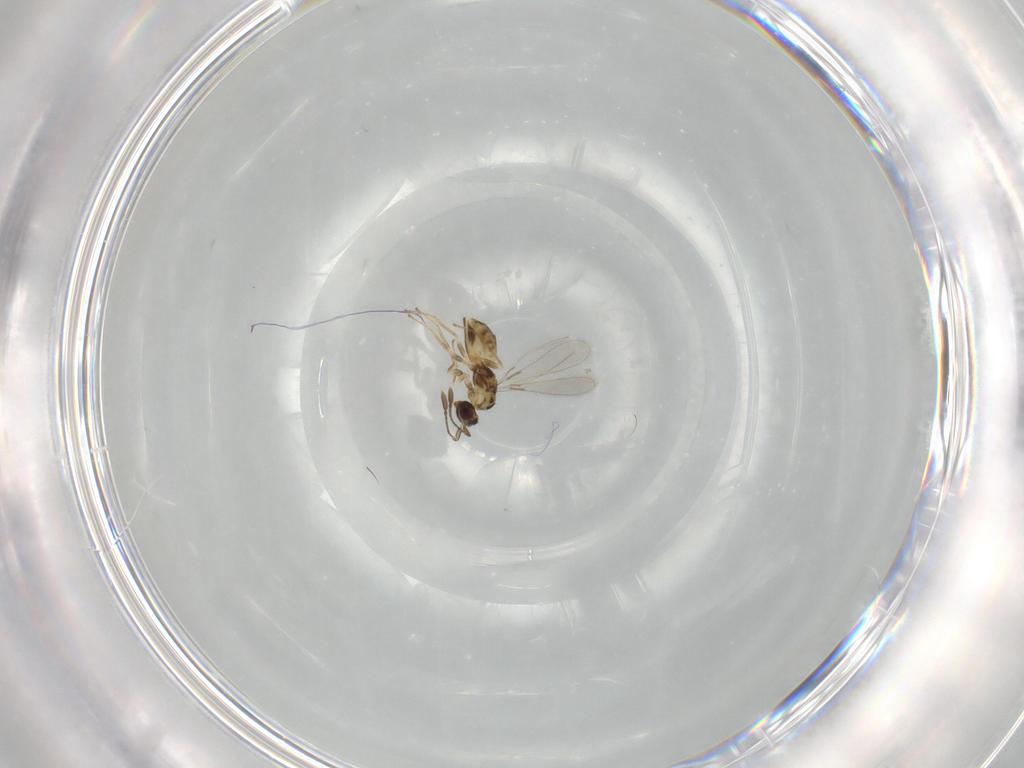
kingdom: Animalia
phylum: Arthropoda
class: Insecta
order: Hymenoptera
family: Mymaridae
